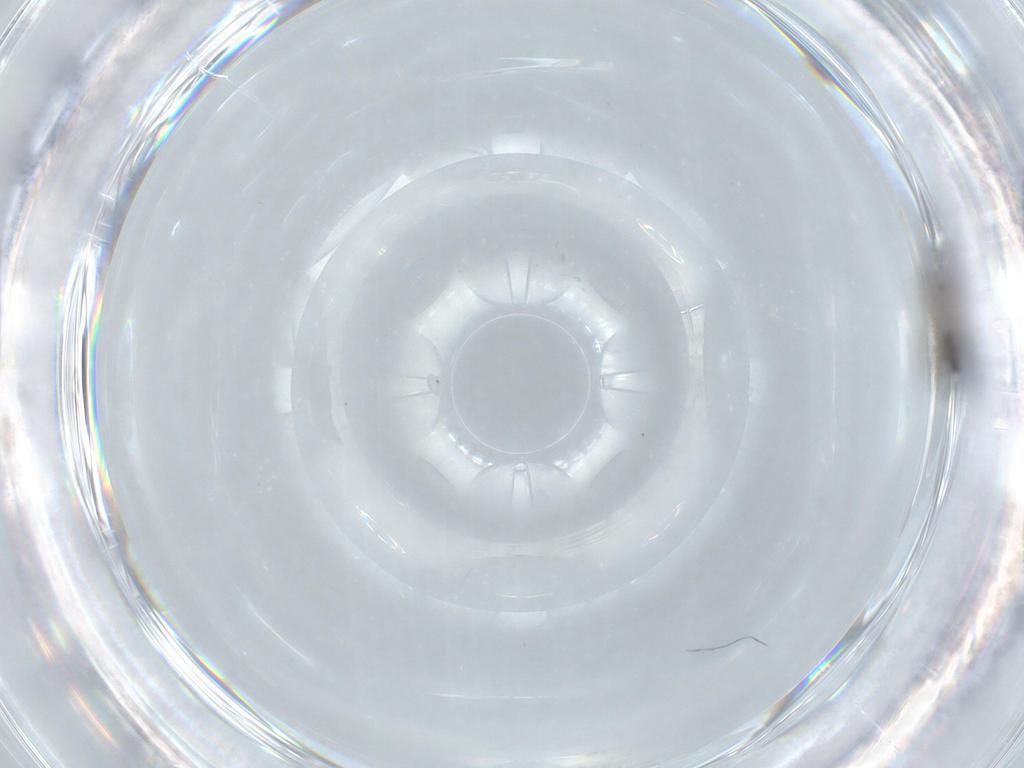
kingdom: Animalia
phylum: Arthropoda
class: Insecta
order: Diptera
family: Sciaridae
